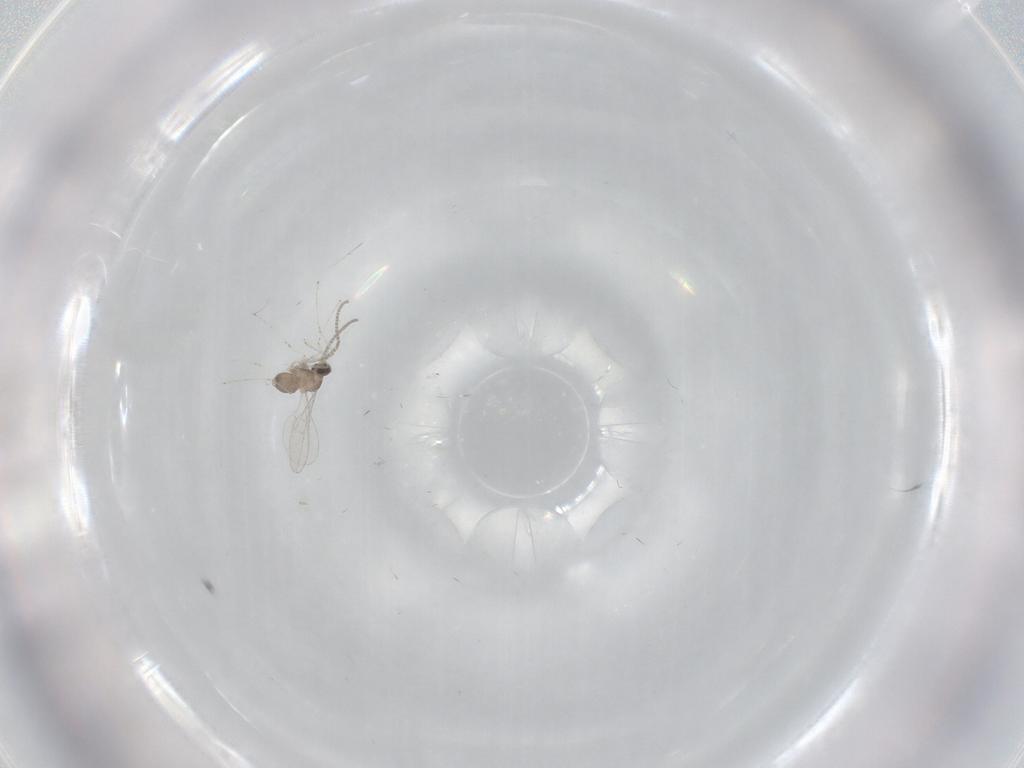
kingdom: Animalia
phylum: Arthropoda
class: Insecta
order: Diptera
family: Cecidomyiidae
